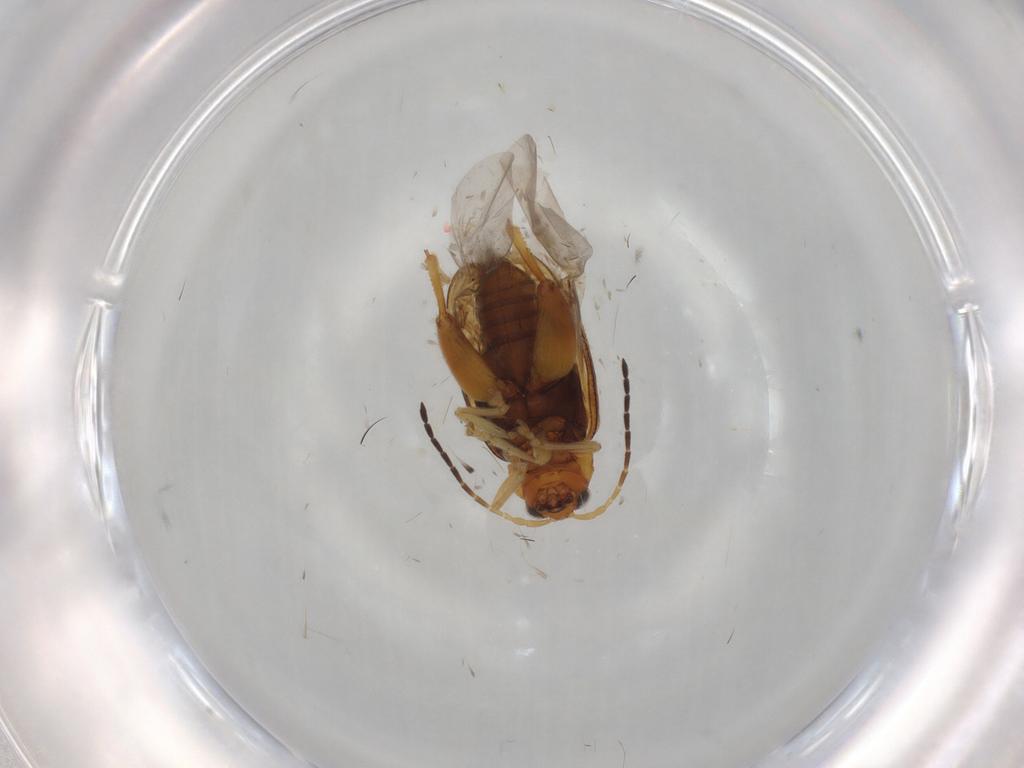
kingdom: Animalia
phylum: Arthropoda
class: Insecta
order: Coleoptera
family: Chrysomelidae
